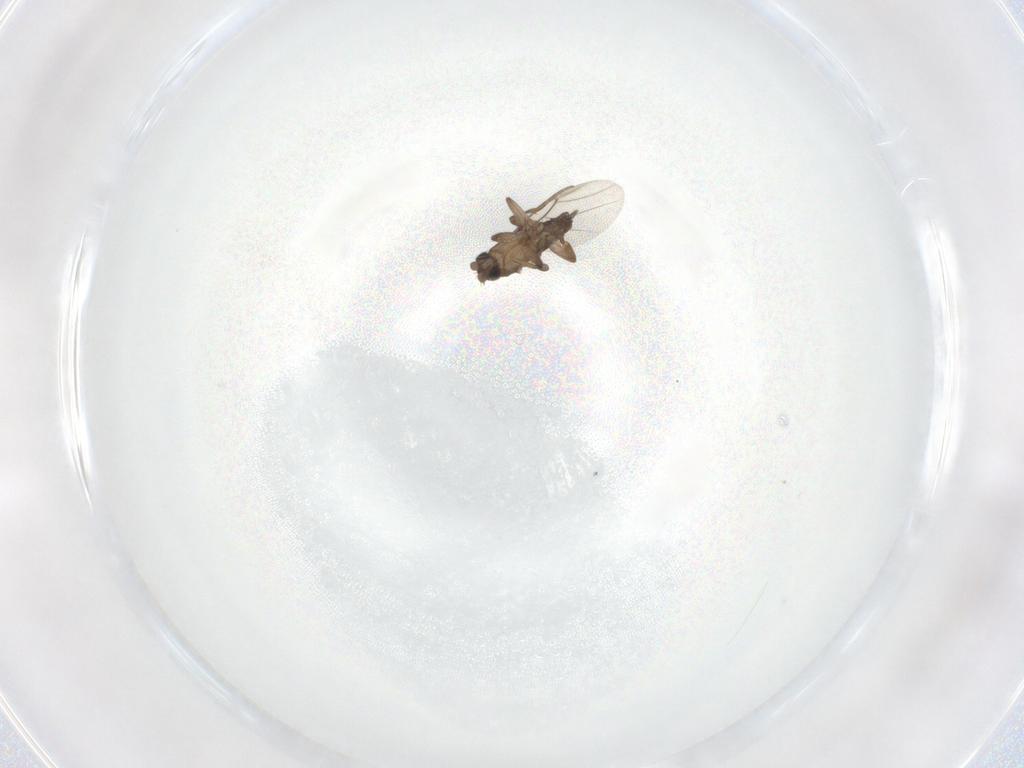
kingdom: Animalia
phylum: Arthropoda
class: Insecta
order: Diptera
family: Phoridae
